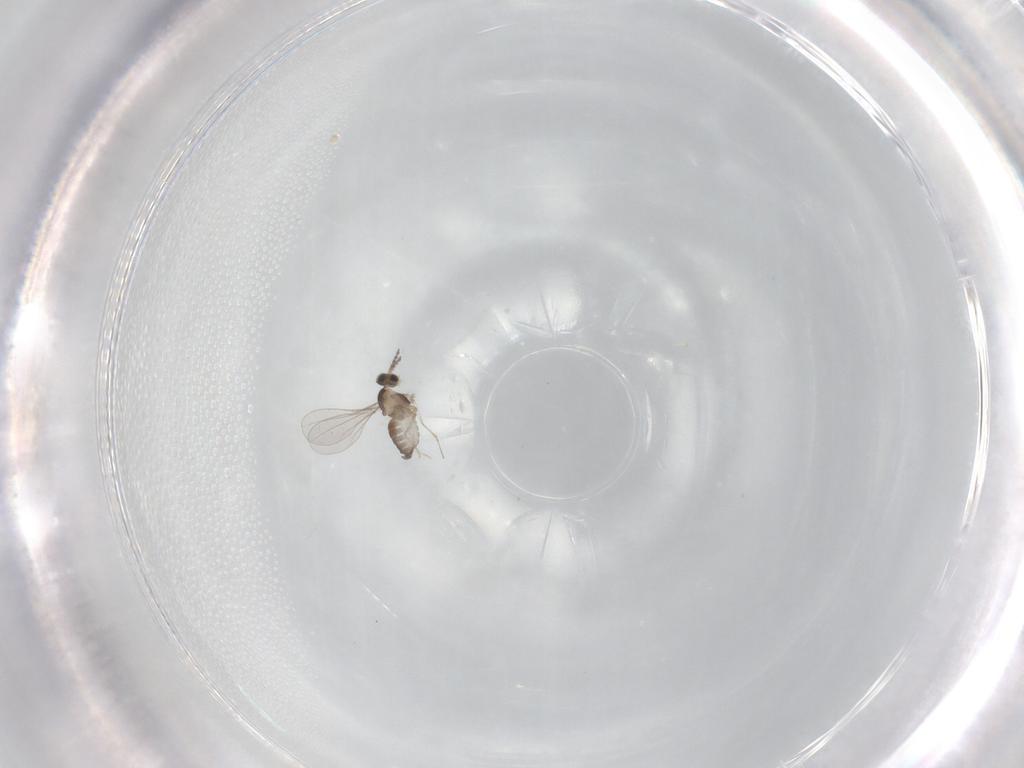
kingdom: Animalia
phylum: Arthropoda
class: Insecta
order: Diptera
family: Cecidomyiidae
